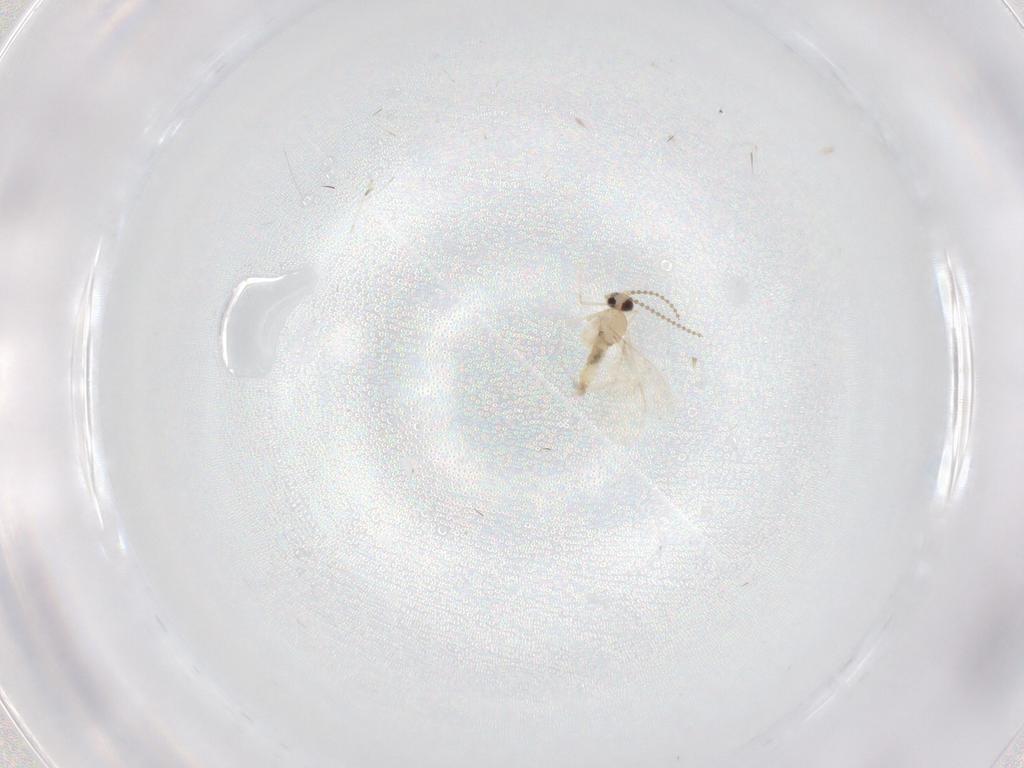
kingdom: Animalia
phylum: Arthropoda
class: Insecta
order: Diptera
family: Cecidomyiidae
